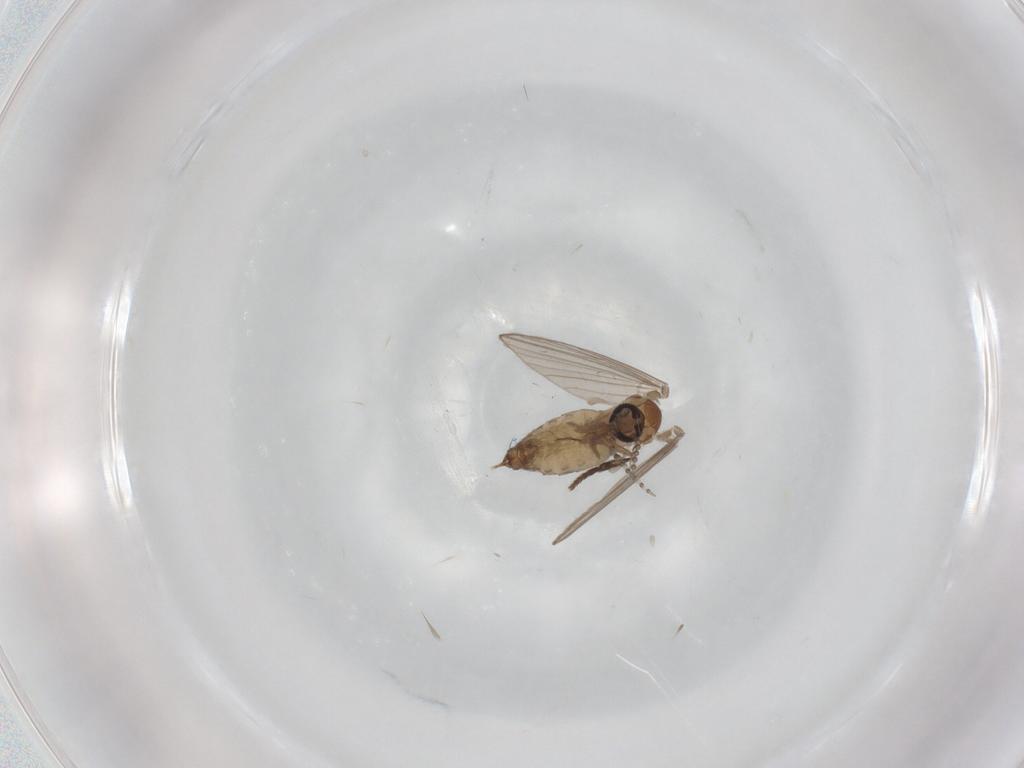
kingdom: Animalia
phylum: Arthropoda
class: Insecta
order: Diptera
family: Psychodidae
